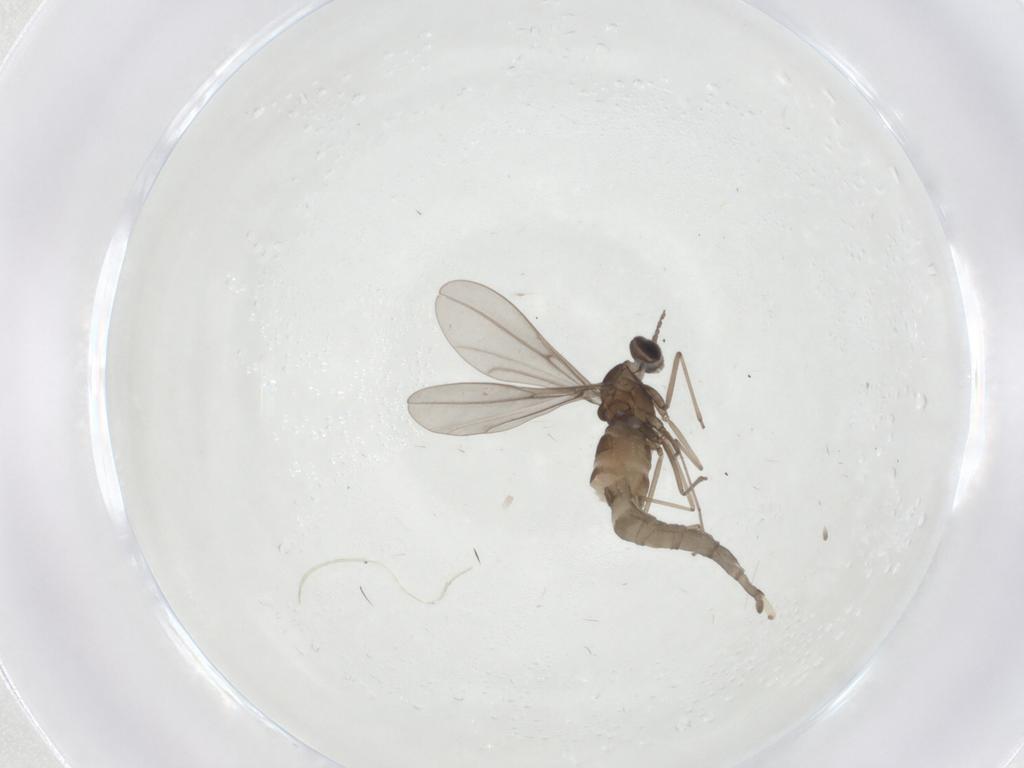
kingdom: Animalia
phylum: Arthropoda
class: Insecta
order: Diptera
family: Cecidomyiidae
